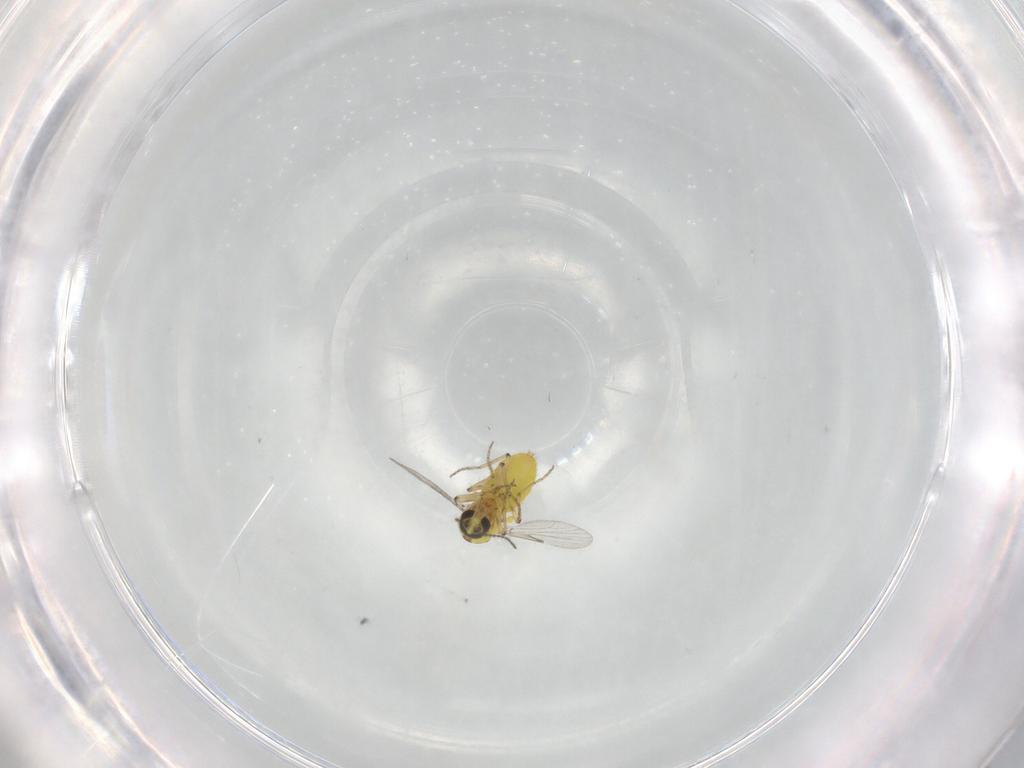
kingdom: Animalia
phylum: Arthropoda
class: Insecta
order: Diptera
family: Ceratopogonidae
